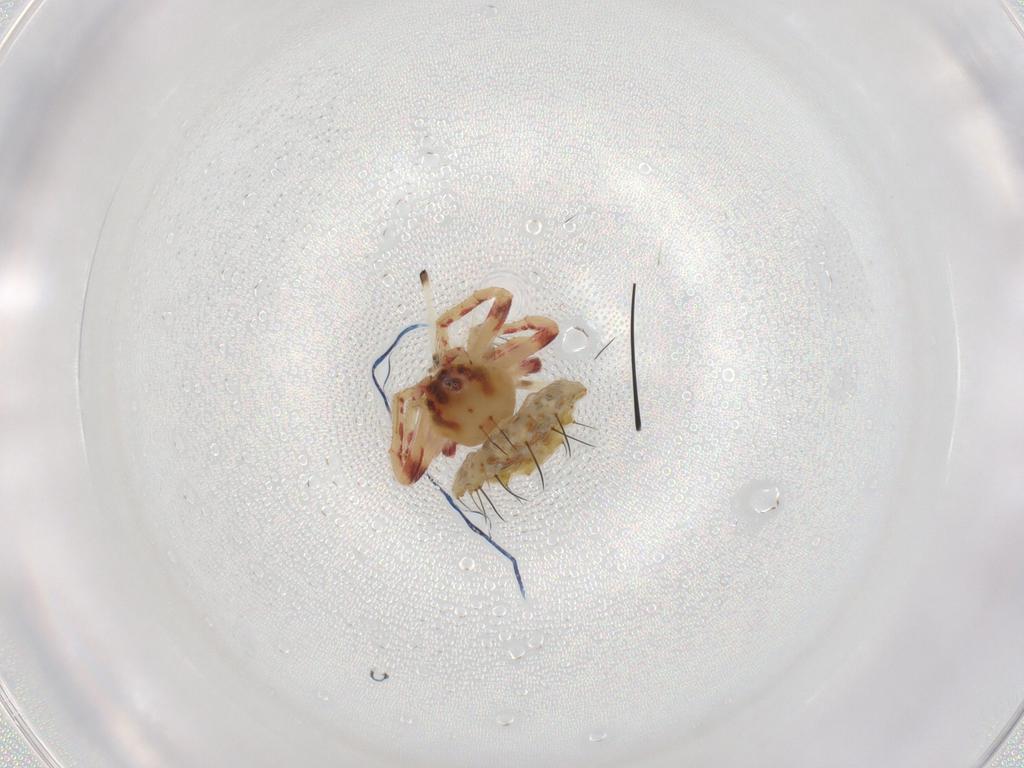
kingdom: Animalia
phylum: Arthropoda
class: Arachnida
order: Araneae
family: Araneidae
